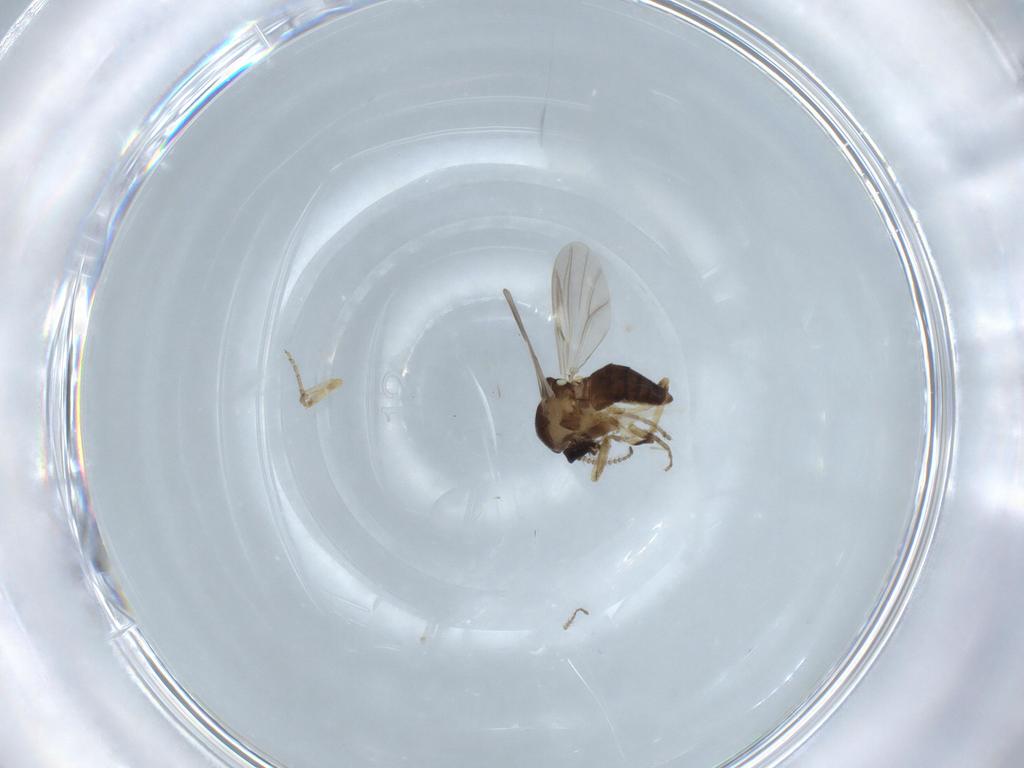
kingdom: Animalia
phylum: Arthropoda
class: Insecta
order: Diptera
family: Ceratopogonidae
